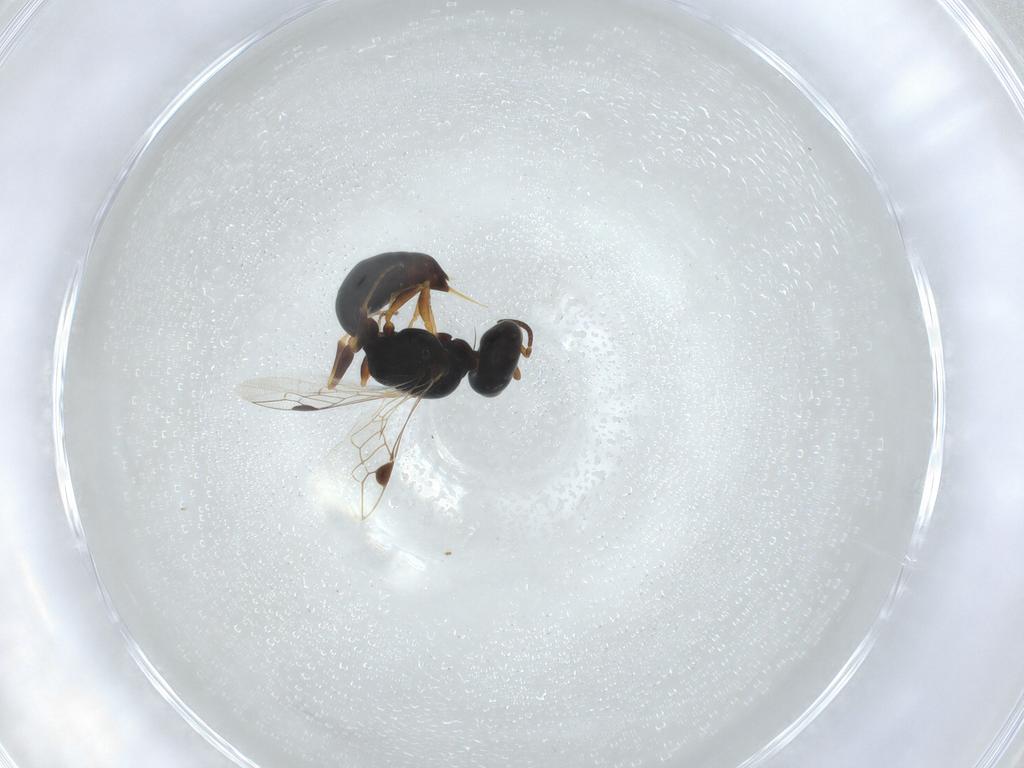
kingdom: Animalia
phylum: Arthropoda
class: Insecta
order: Hymenoptera
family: Pemphredonidae
